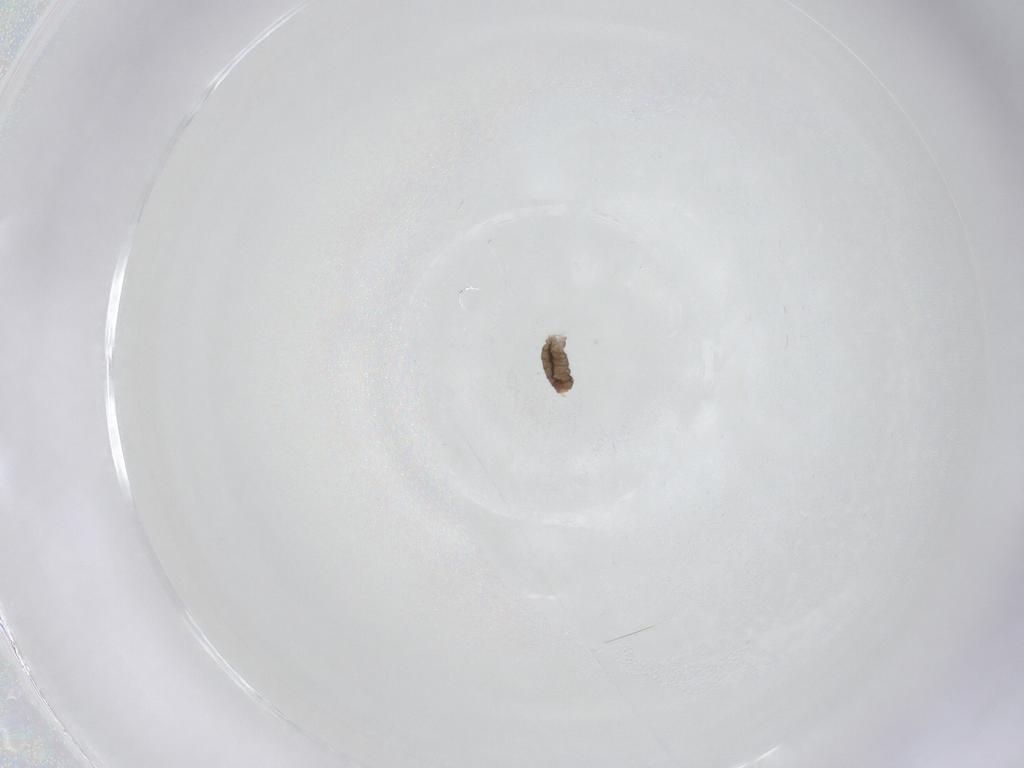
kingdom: Animalia
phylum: Arthropoda
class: Insecta
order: Diptera
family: Cecidomyiidae
